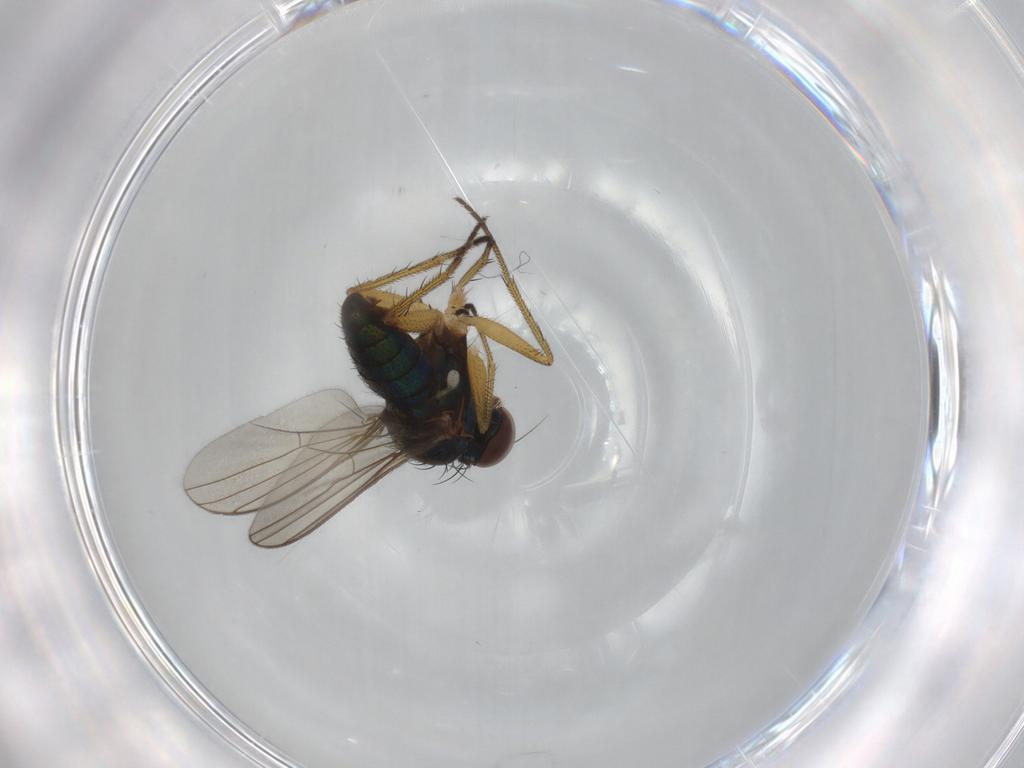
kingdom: Animalia
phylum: Arthropoda
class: Insecta
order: Diptera
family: Dolichopodidae
